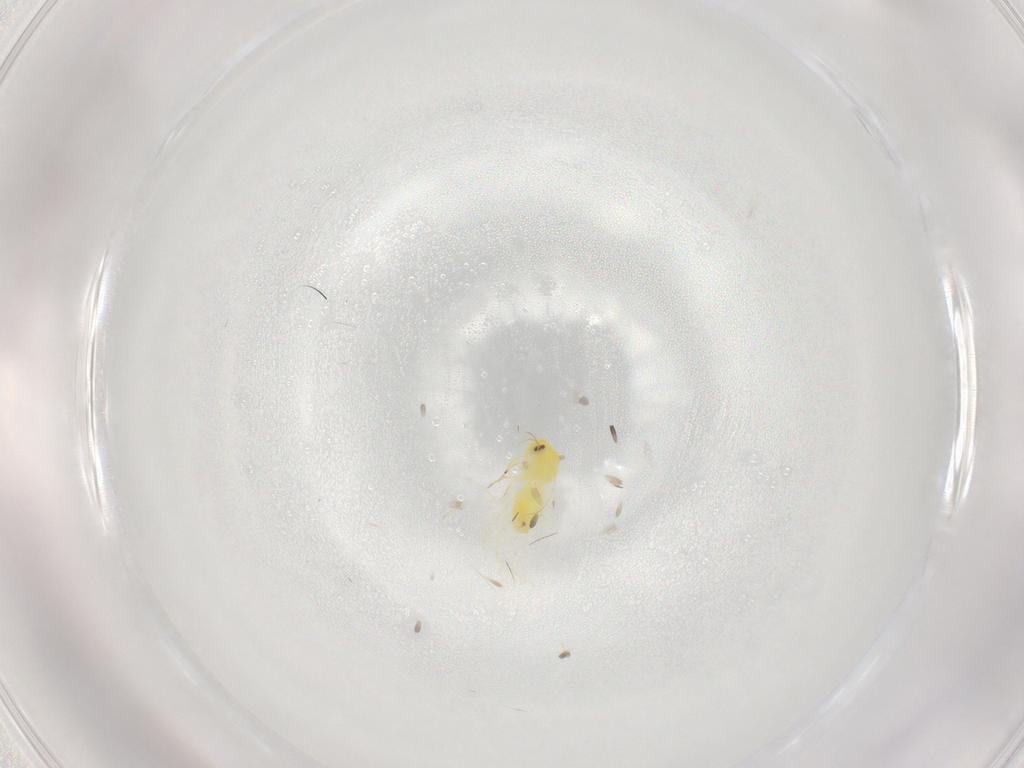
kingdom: Animalia
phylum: Arthropoda
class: Insecta
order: Hemiptera
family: Aleyrodidae
